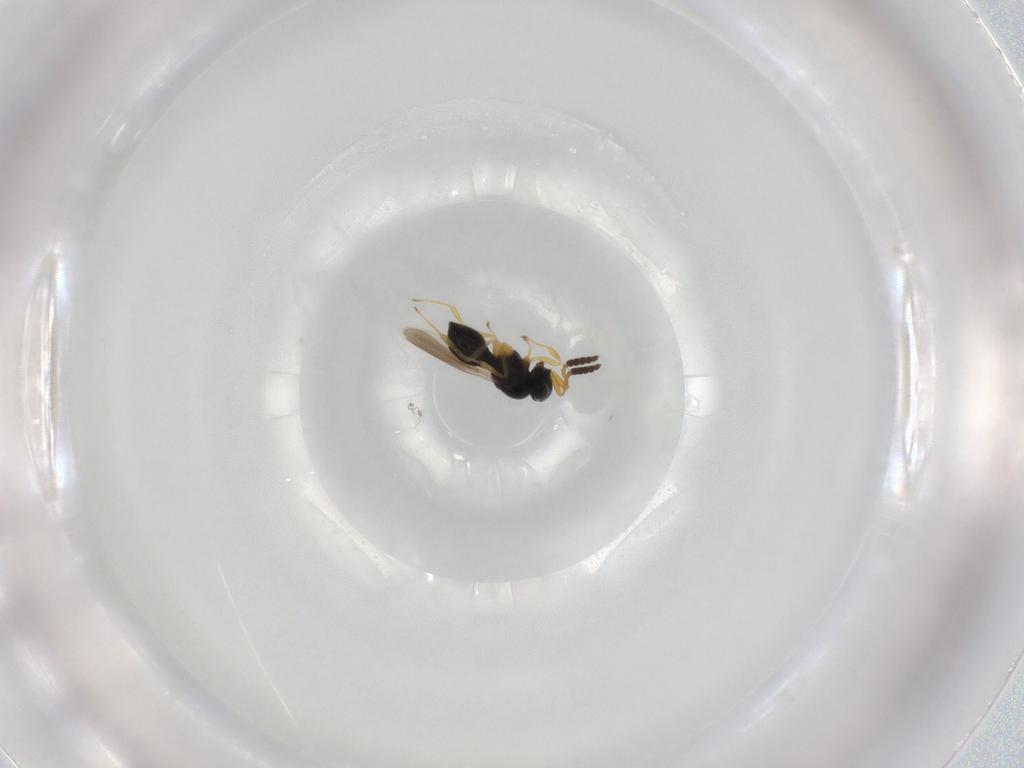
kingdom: Animalia
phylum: Arthropoda
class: Insecta
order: Hymenoptera
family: Scelionidae
